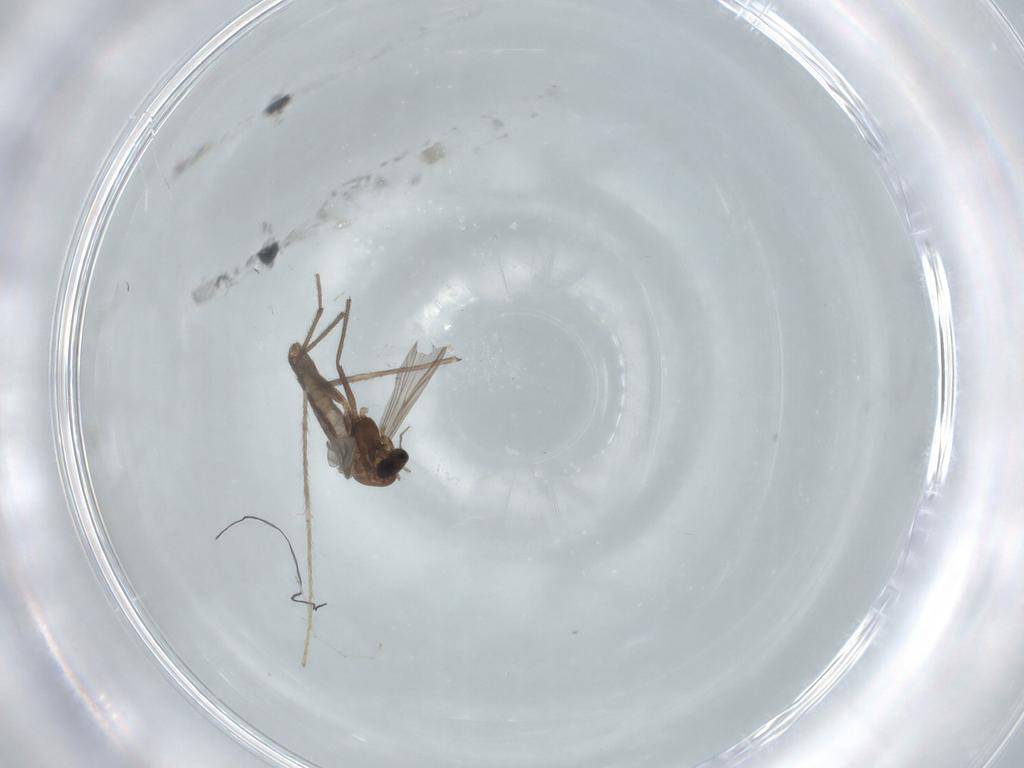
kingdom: Animalia
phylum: Arthropoda
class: Insecta
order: Diptera
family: Chironomidae
